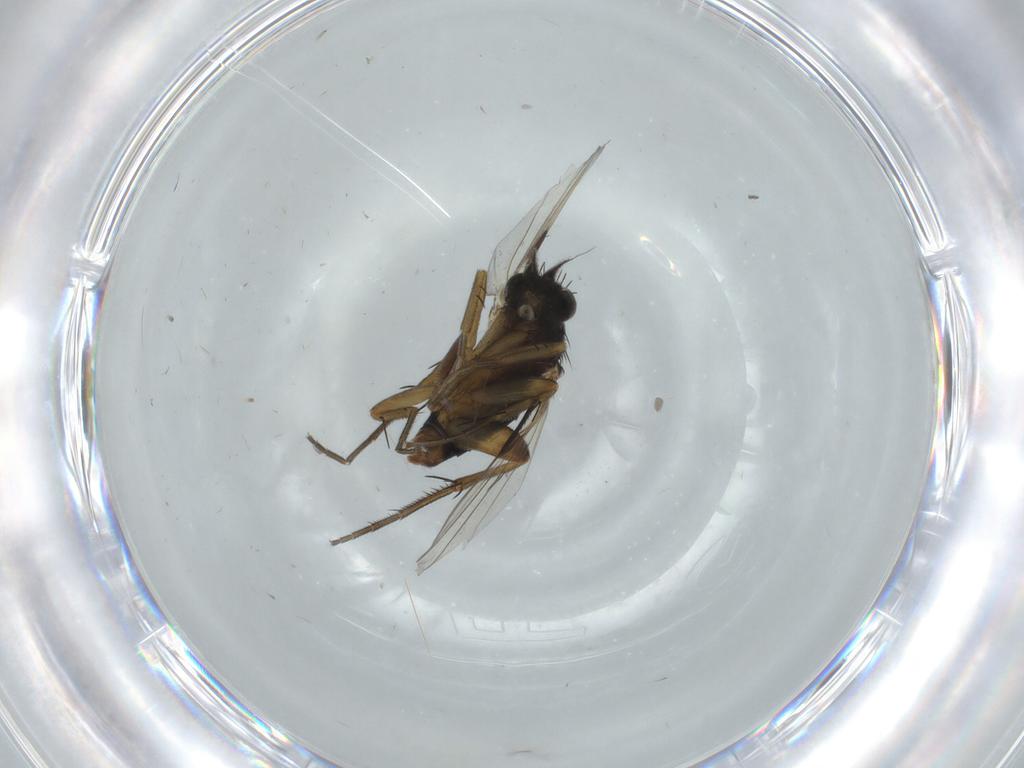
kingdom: Animalia
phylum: Arthropoda
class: Insecta
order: Diptera
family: Phoridae
